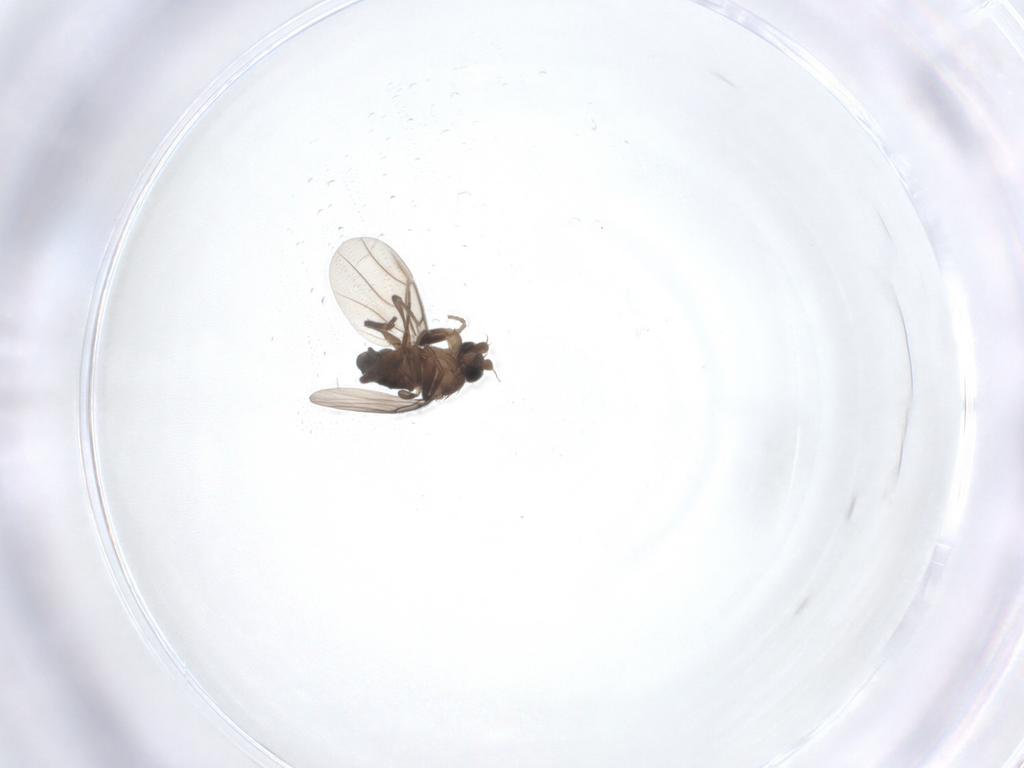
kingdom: Animalia
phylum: Arthropoda
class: Insecta
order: Diptera
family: Phoridae
